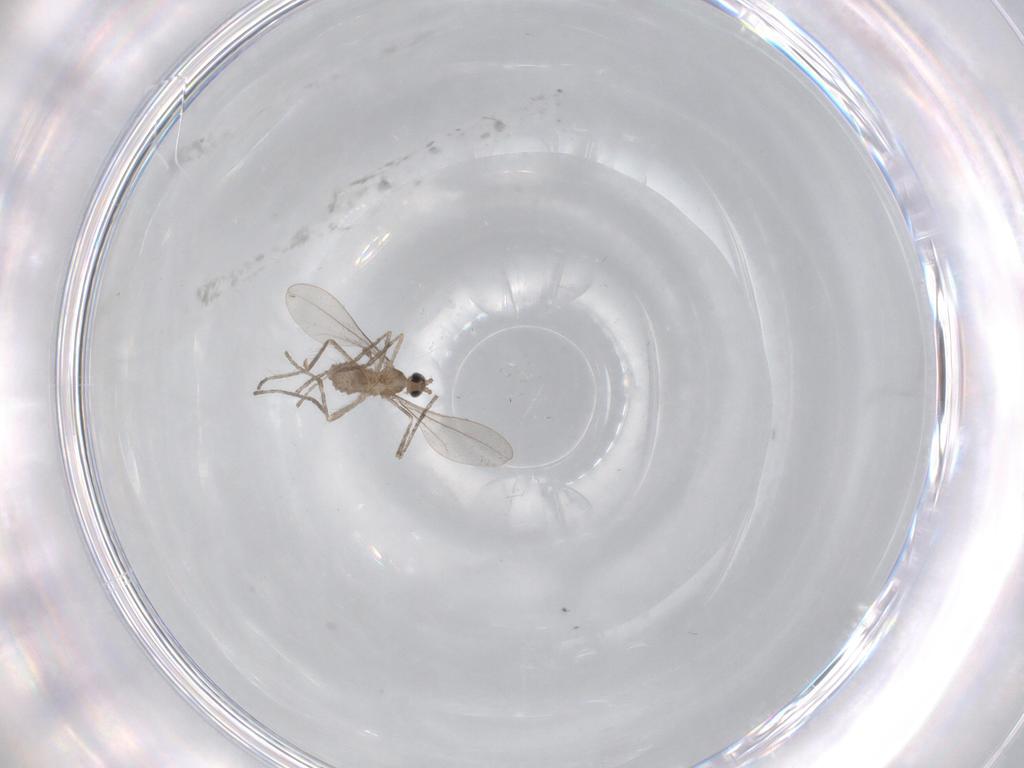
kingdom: Animalia
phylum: Arthropoda
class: Insecta
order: Diptera
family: Cecidomyiidae
